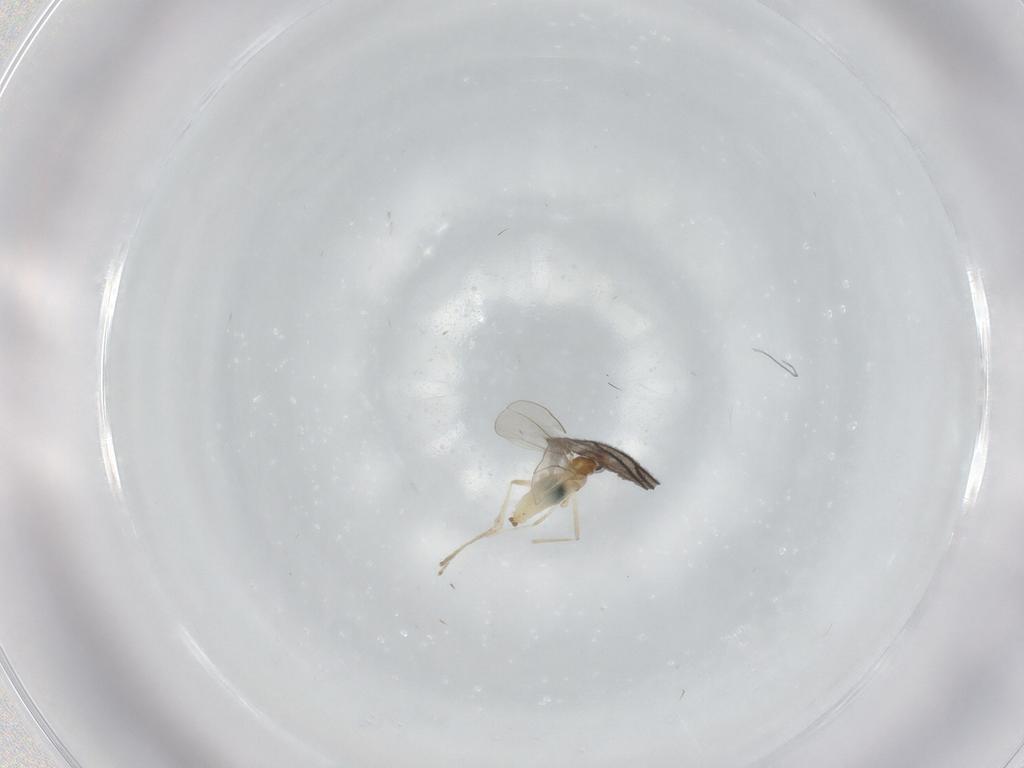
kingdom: Animalia
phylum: Arthropoda
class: Insecta
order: Diptera
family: Cecidomyiidae
